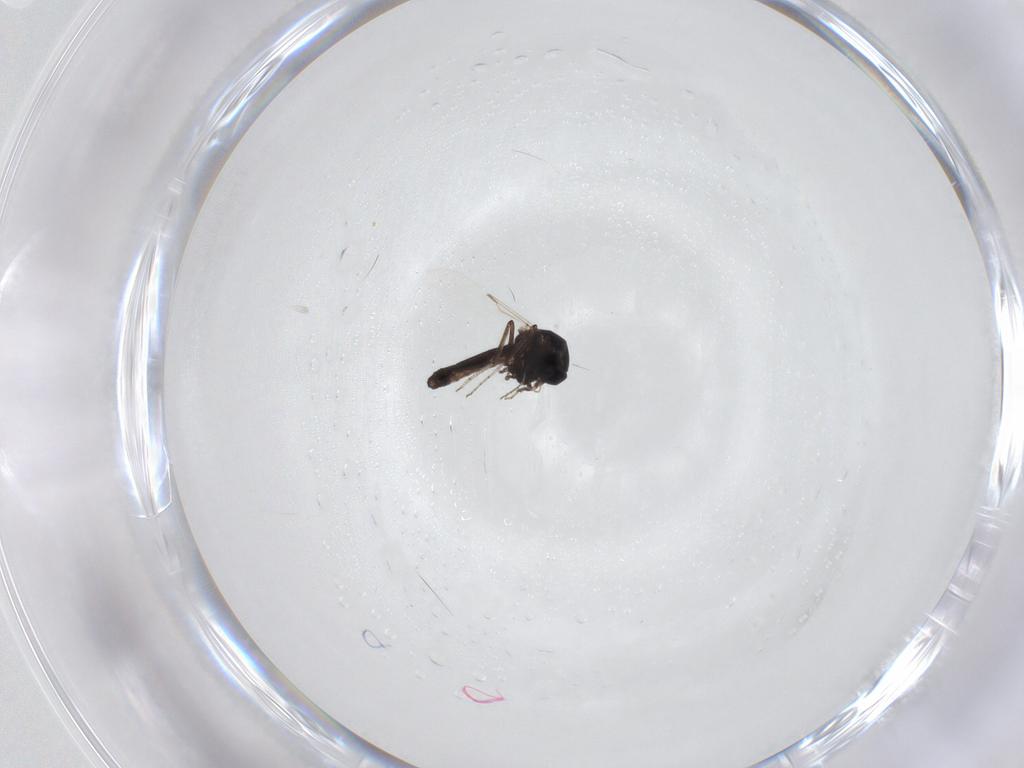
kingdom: Animalia
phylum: Arthropoda
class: Insecta
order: Diptera
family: Ceratopogonidae
